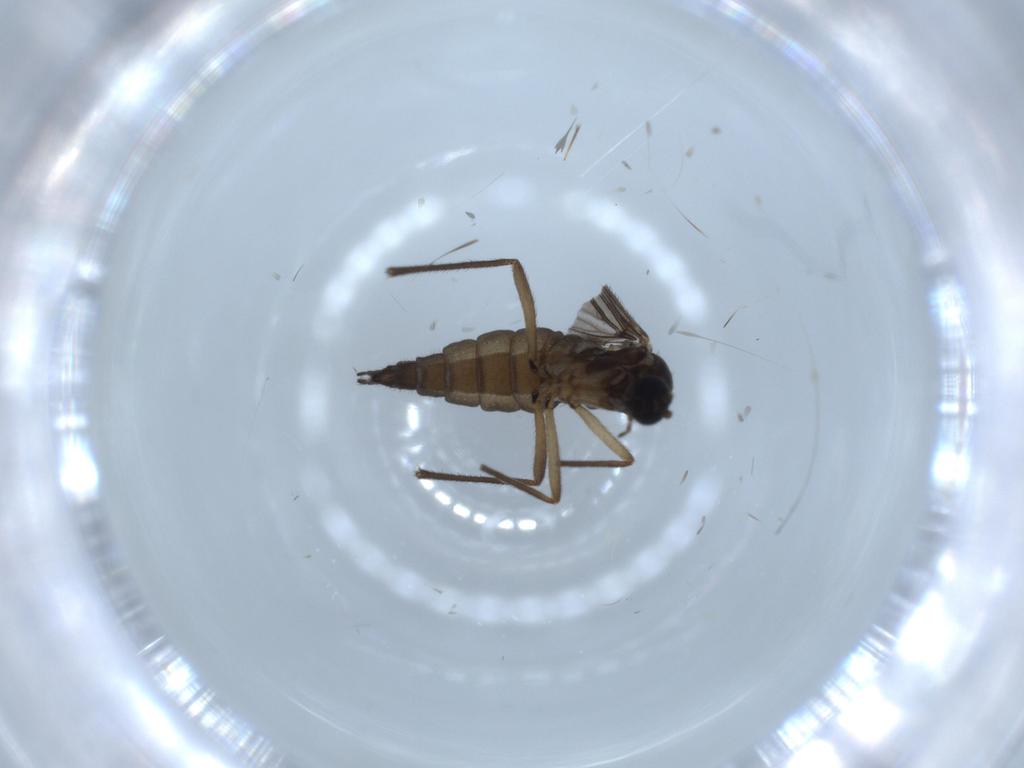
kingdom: Animalia
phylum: Arthropoda
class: Insecta
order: Diptera
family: Sciaridae
